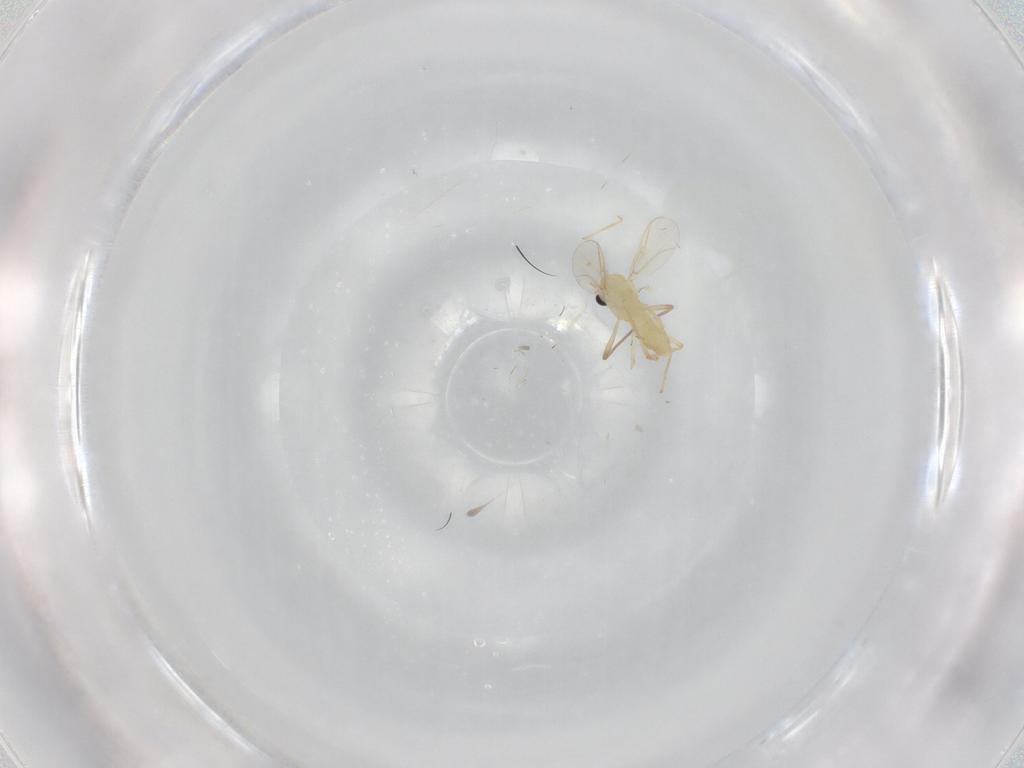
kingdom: Animalia
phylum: Arthropoda
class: Insecta
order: Diptera
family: Chironomidae
